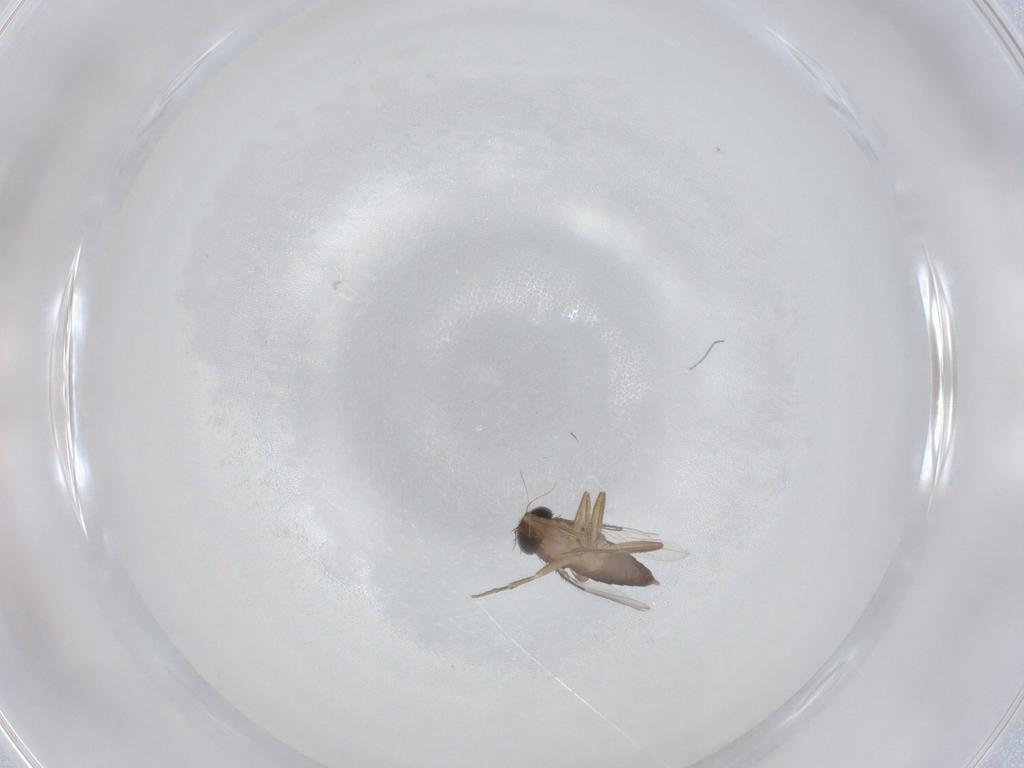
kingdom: Animalia
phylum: Arthropoda
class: Insecta
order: Diptera
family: Phoridae
